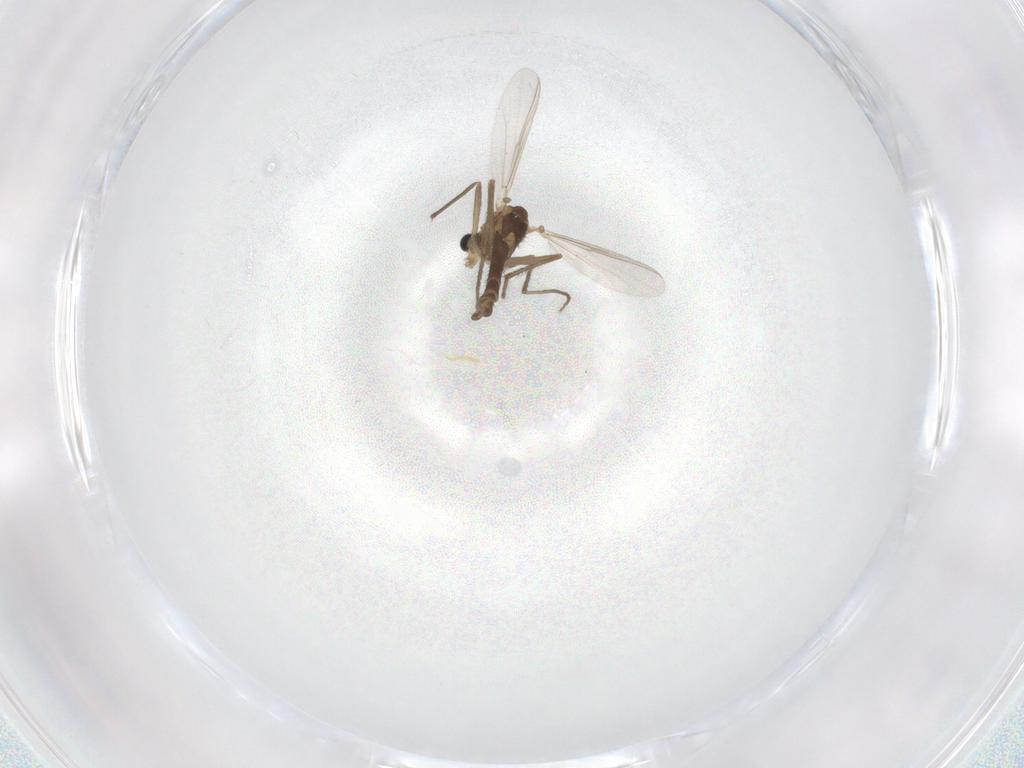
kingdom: Animalia
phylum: Arthropoda
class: Insecta
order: Diptera
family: Chironomidae
